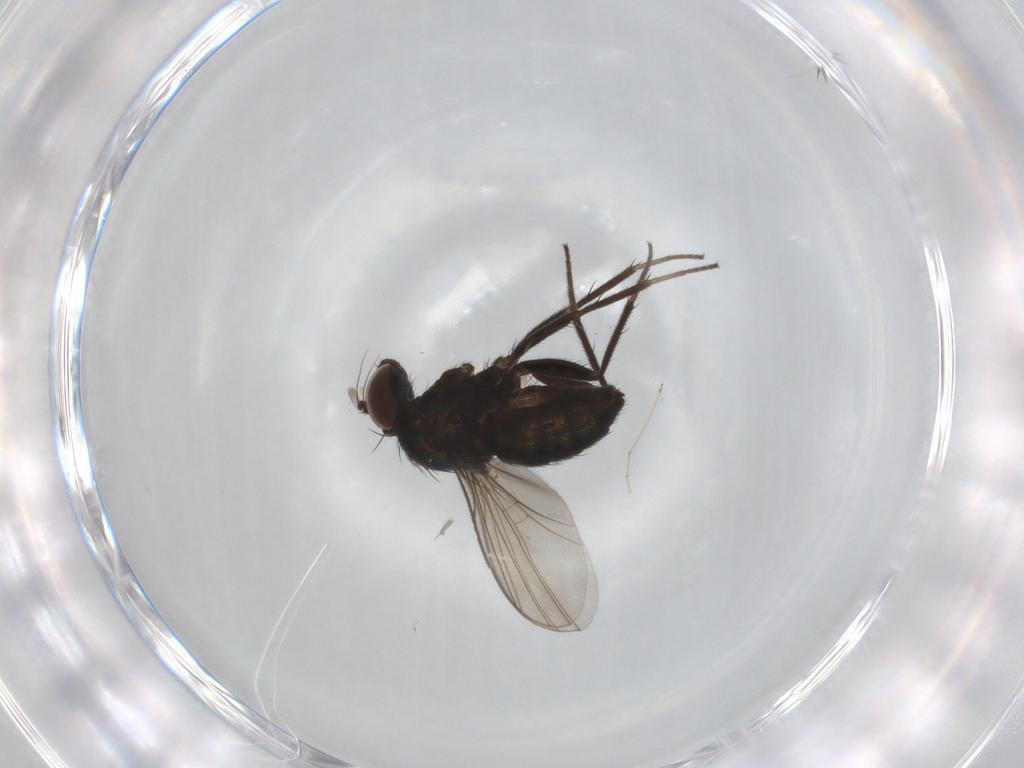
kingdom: Animalia
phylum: Arthropoda
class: Insecta
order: Diptera
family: Dolichopodidae
